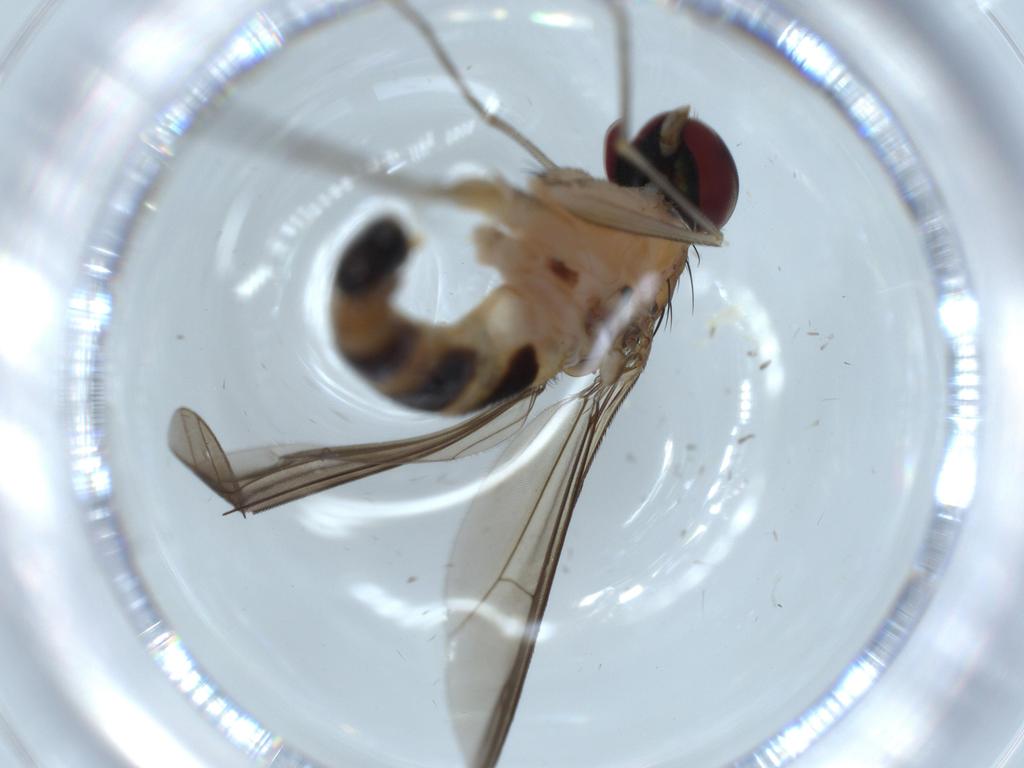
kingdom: Animalia
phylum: Arthropoda
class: Insecta
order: Diptera
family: Dolichopodidae
